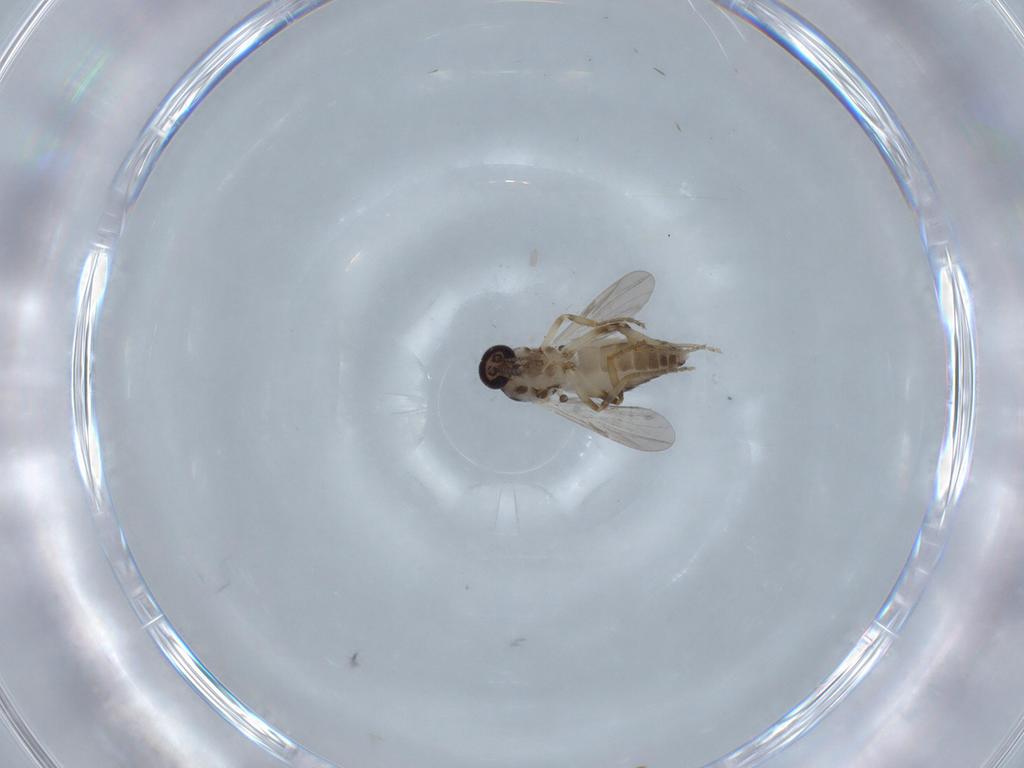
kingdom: Animalia
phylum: Arthropoda
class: Insecta
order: Diptera
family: Ceratopogonidae
